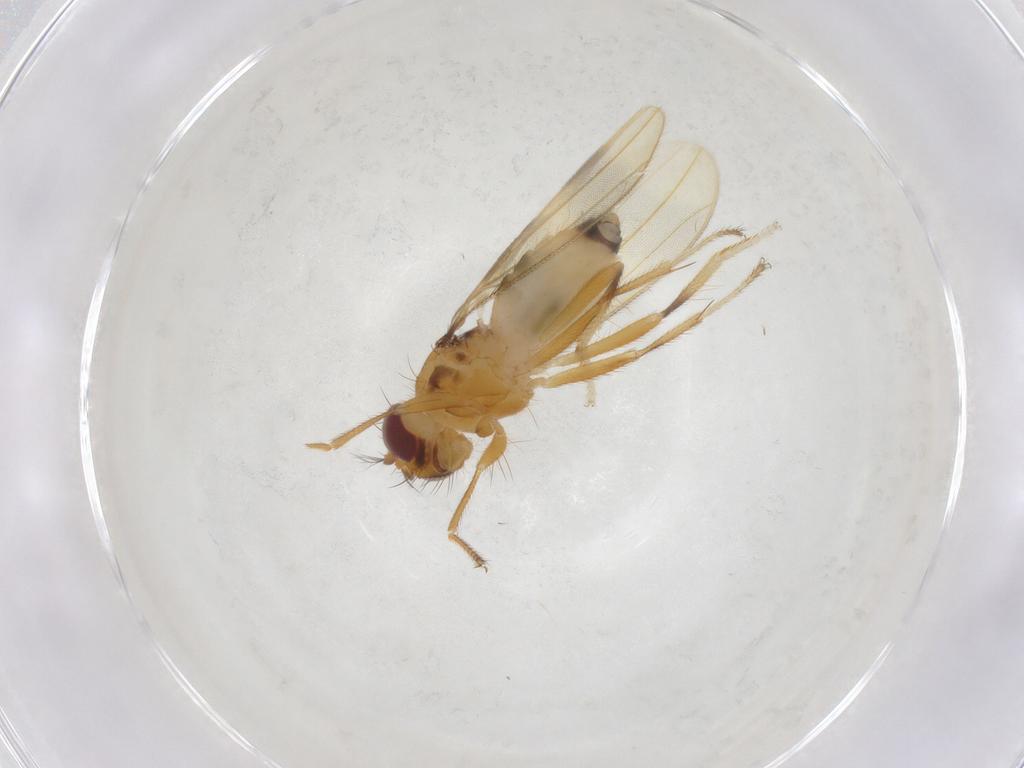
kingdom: Animalia
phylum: Arthropoda
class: Insecta
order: Diptera
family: Periscelididae
